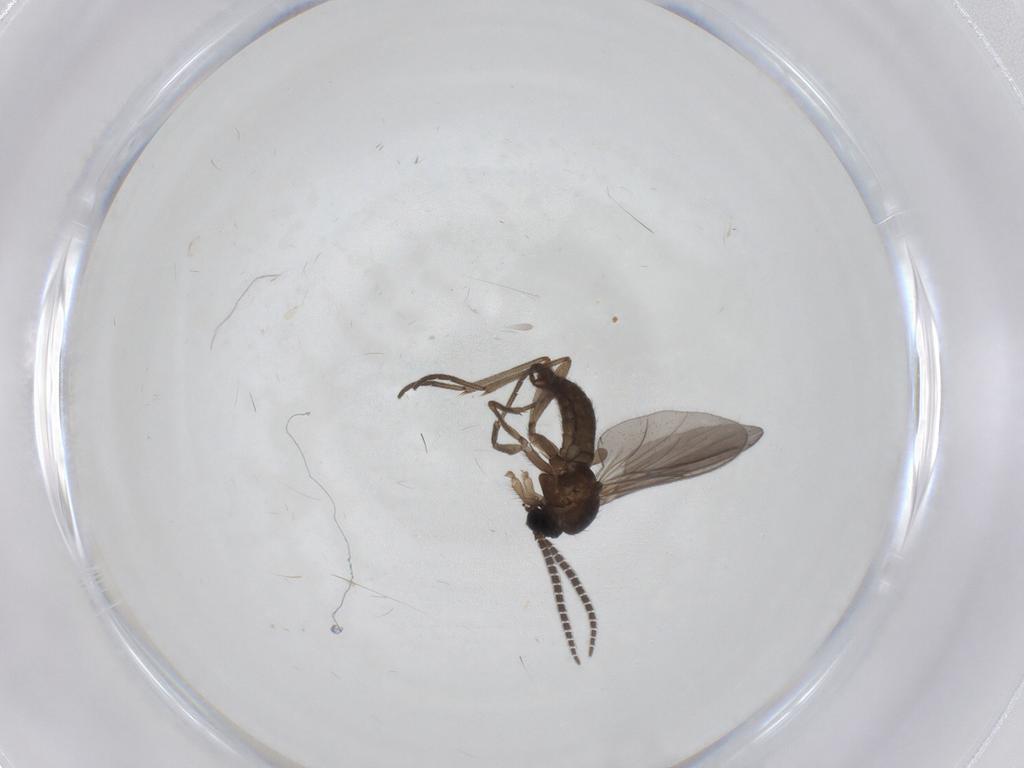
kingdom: Animalia
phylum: Arthropoda
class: Insecta
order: Diptera
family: Sciaridae
